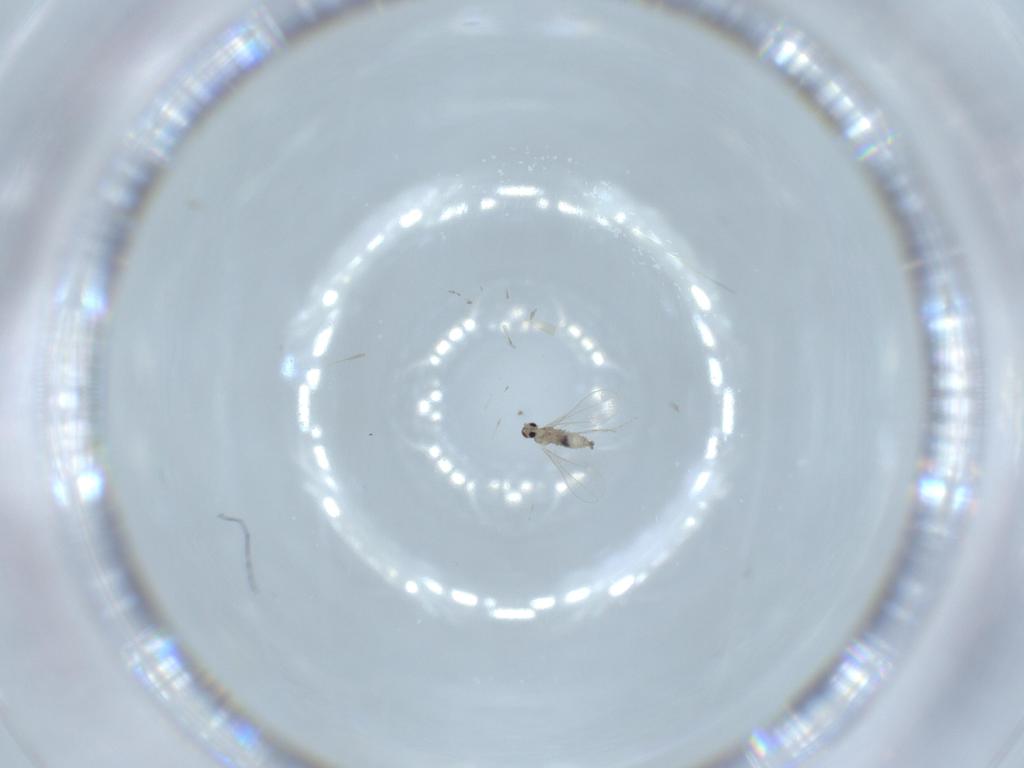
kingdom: Animalia
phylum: Arthropoda
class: Insecta
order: Diptera
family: Cecidomyiidae
